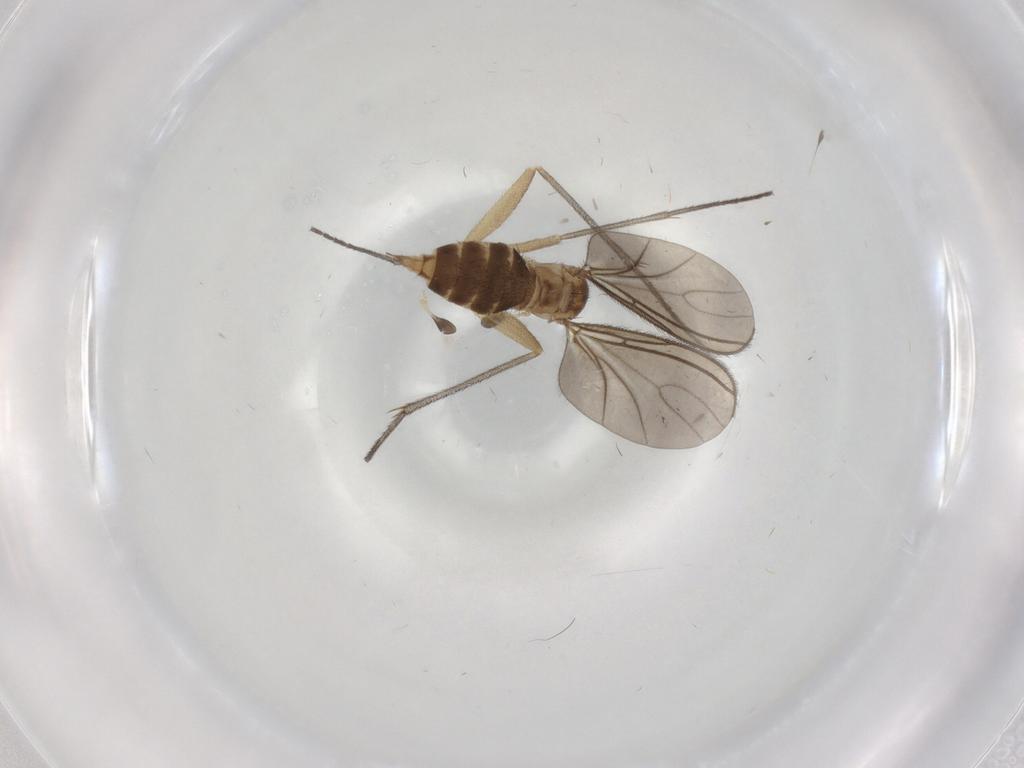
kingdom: Animalia
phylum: Arthropoda
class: Insecta
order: Diptera
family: Sciaridae
